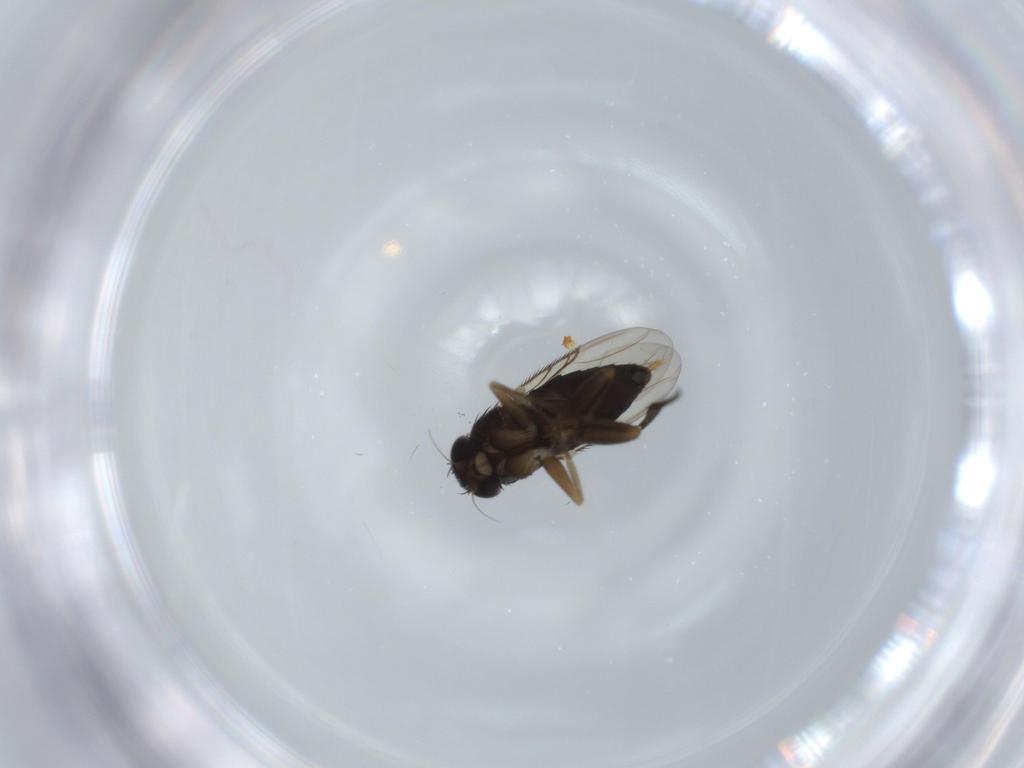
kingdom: Animalia
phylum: Arthropoda
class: Insecta
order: Diptera
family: Phoridae
